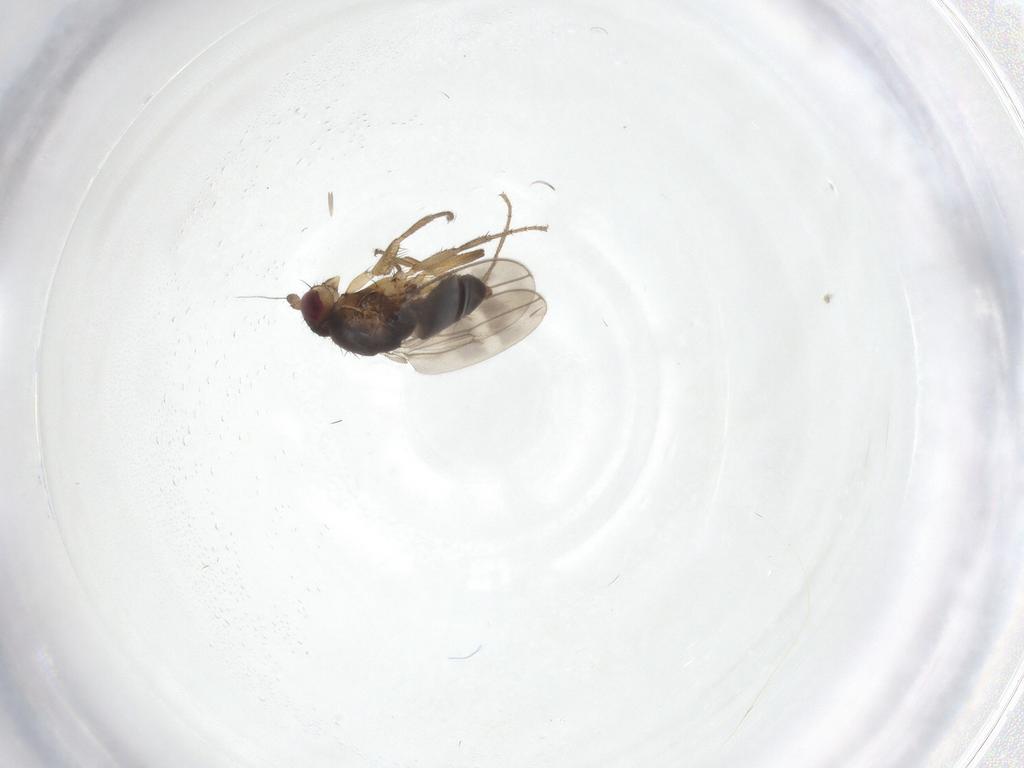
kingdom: Animalia
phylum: Arthropoda
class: Insecta
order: Diptera
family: Sphaeroceridae
